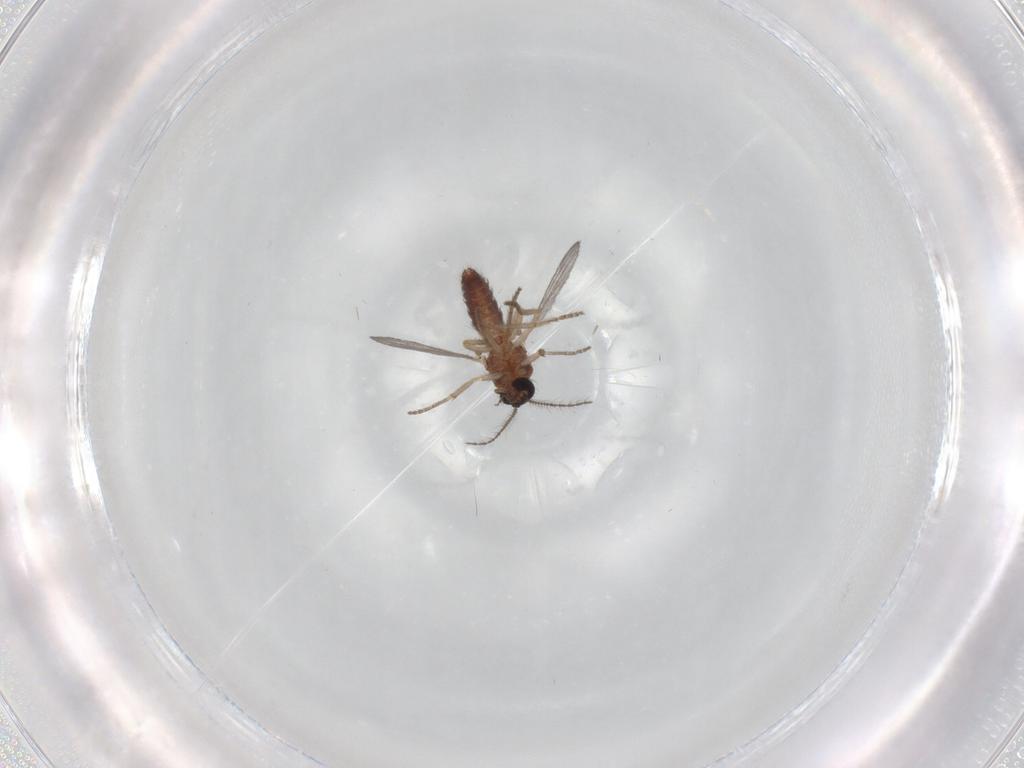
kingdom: Animalia
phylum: Arthropoda
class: Insecta
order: Diptera
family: Ceratopogonidae
